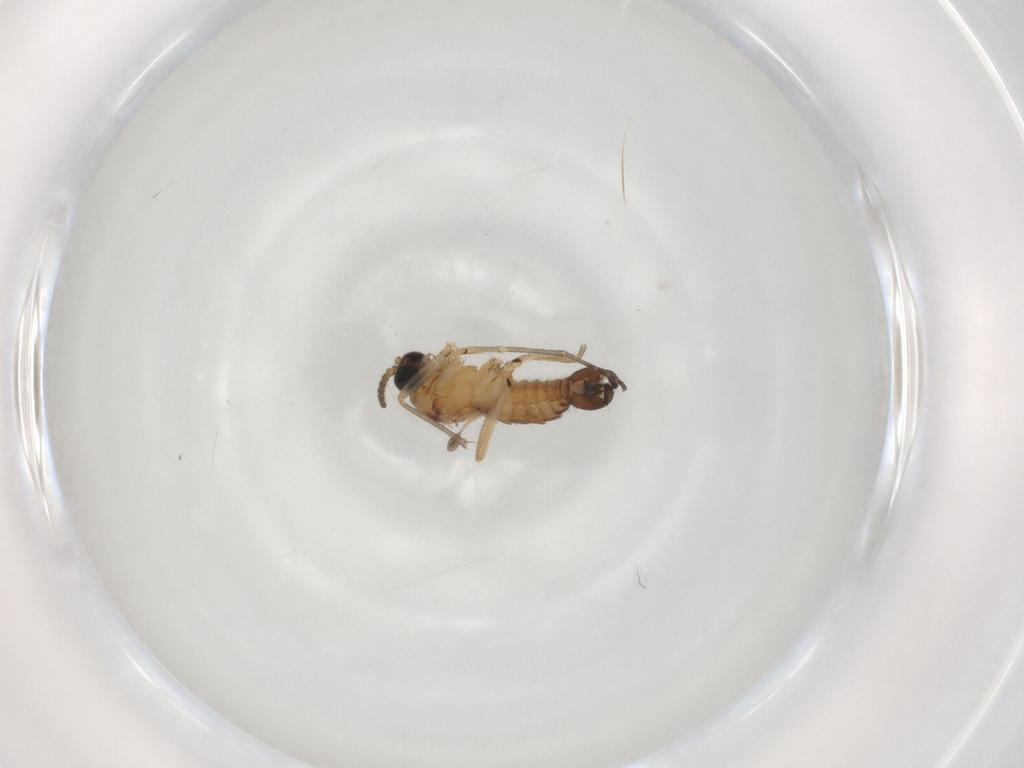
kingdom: Animalia
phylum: Arthropoda
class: Insecta
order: Diptera
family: Sciaridae
